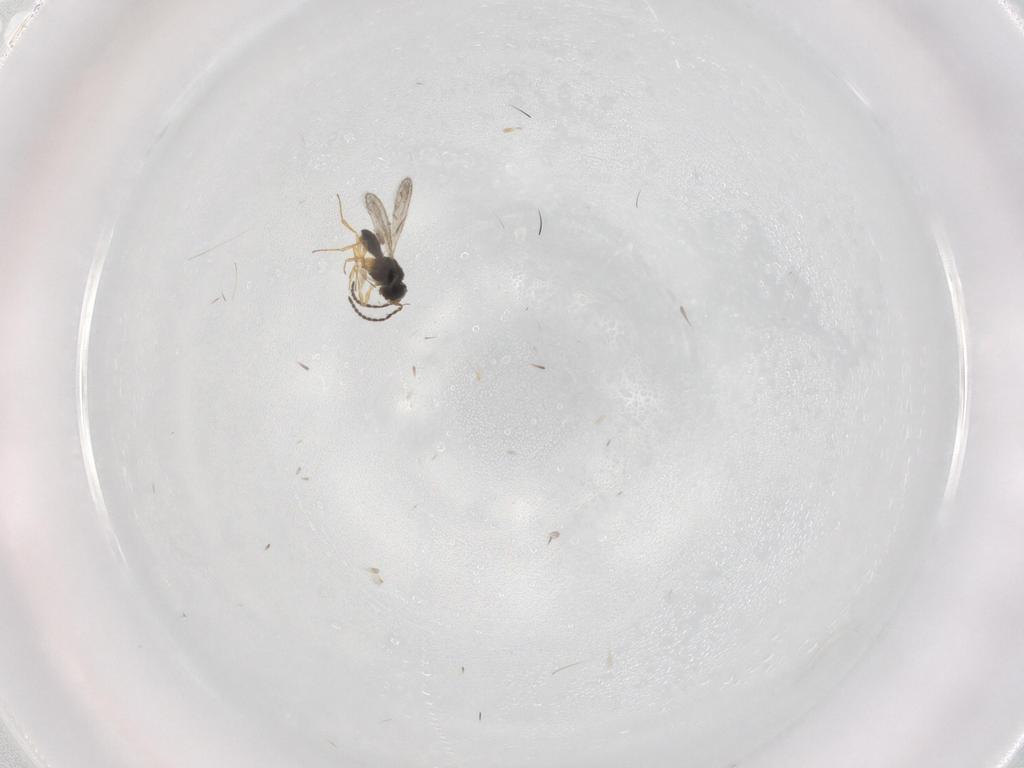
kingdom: Animalia
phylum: Arthropoda
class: Insecta
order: Hymenoptera
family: Scelionidae
